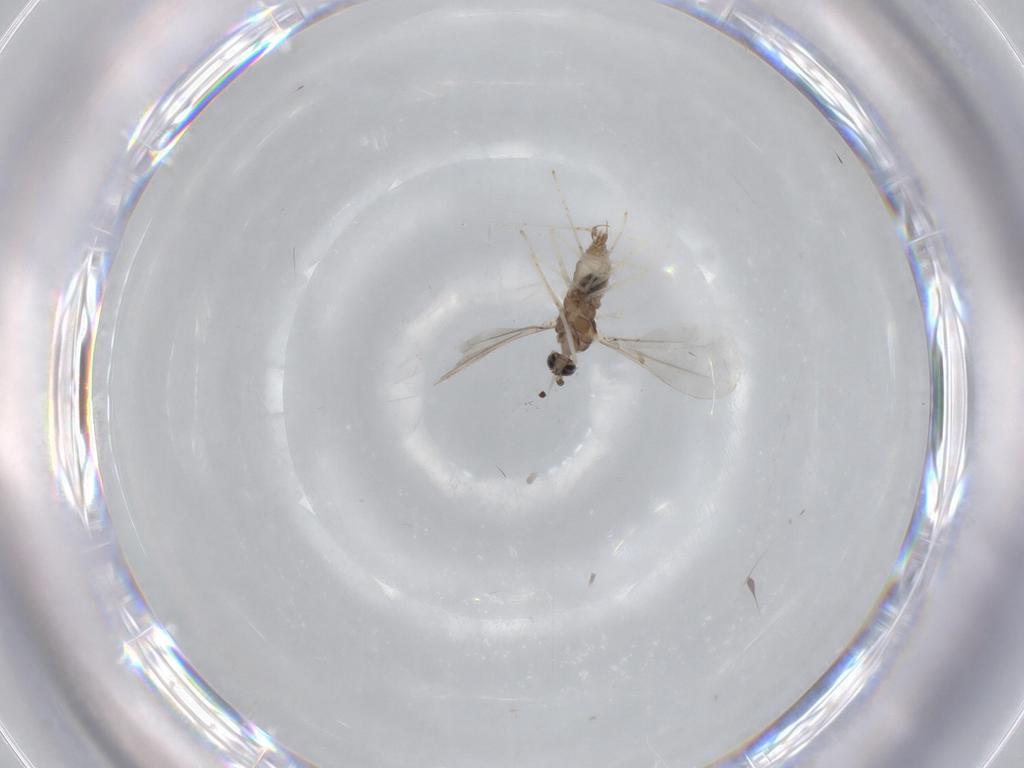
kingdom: Animalia
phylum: Arthropoda
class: Insecta
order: Diptera
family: Cecidomyiidae
